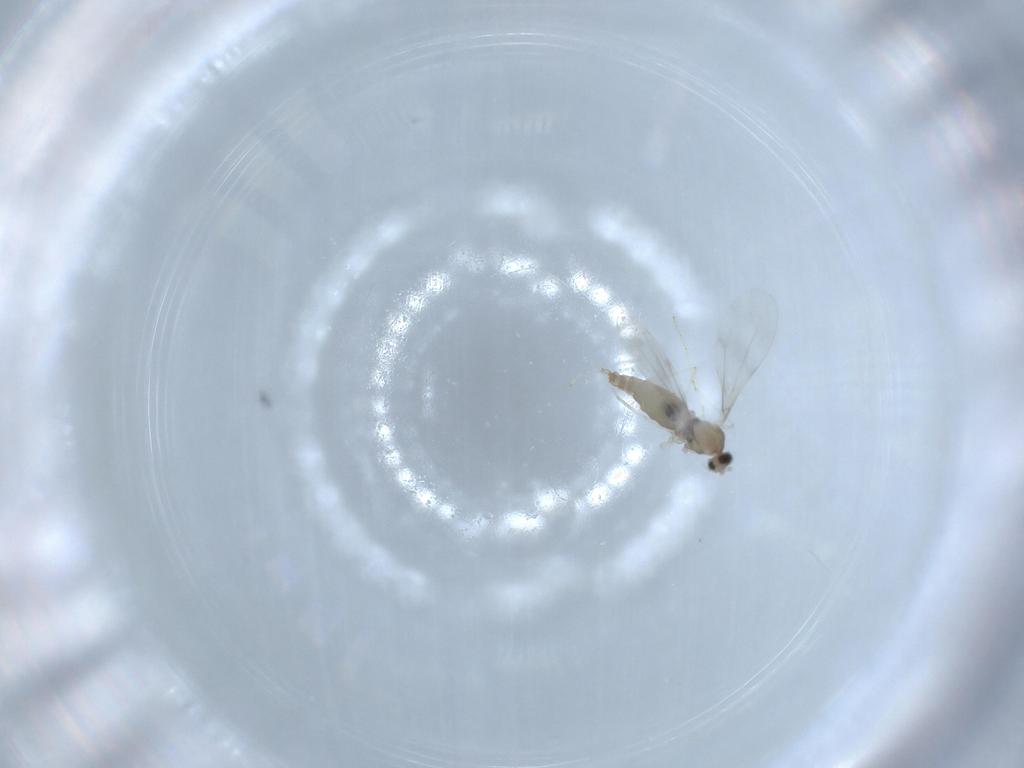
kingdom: Animalia
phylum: Arthropoda
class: Insecta
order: Diptera
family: Cecidomyiidae
